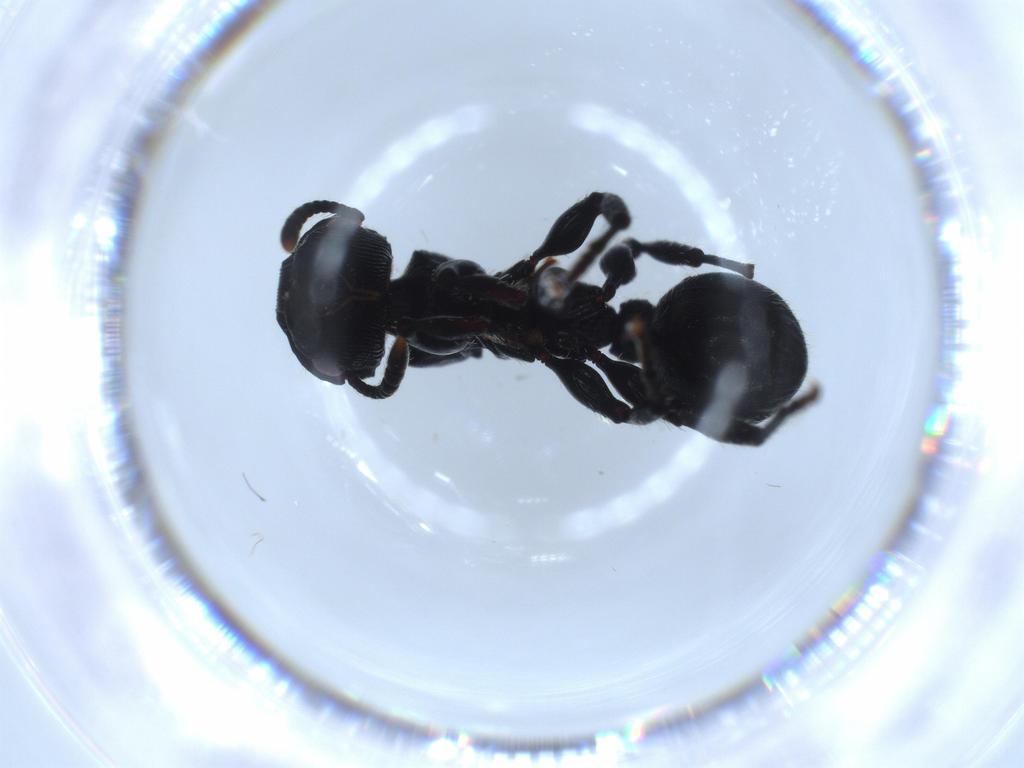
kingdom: Animalia
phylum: Arthropoda
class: Insecta
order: Hymenoptera
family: Formicidae
